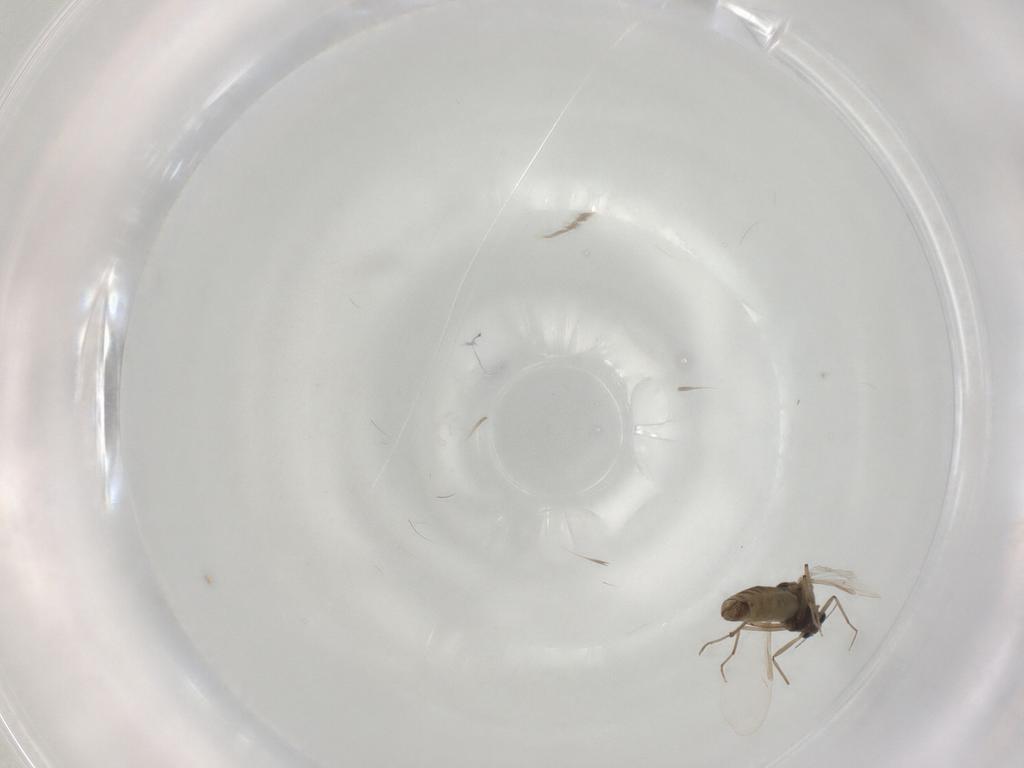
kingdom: Animalia
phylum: Arthropoda
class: Insecta
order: Diptera
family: Chironomidae
